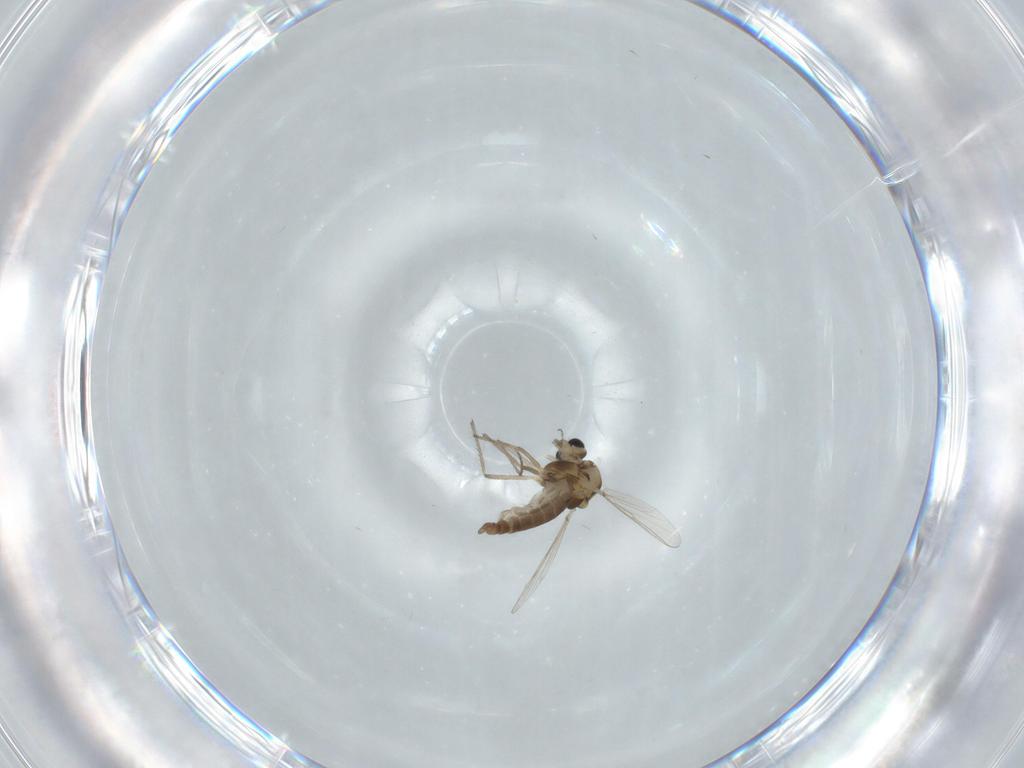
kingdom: Animalia
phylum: Arthropoda
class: Insecta
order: Diptera
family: Chironomidae
